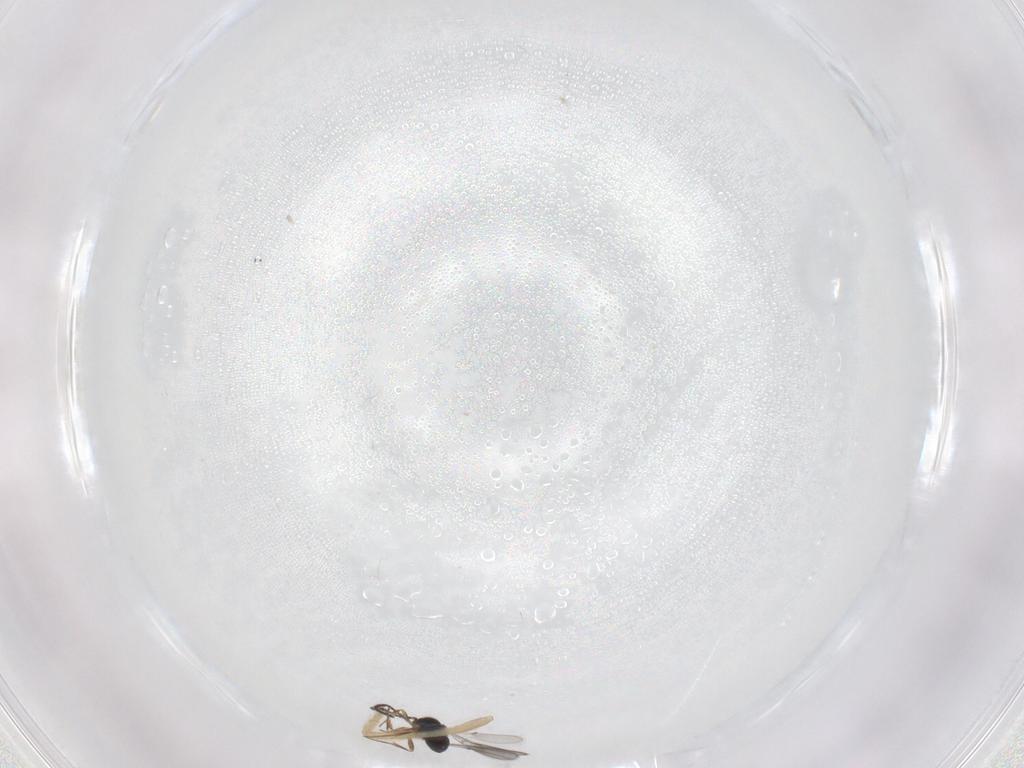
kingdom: Animalia
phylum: Arthropoda
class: Insecta
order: Hymenoptera
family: Scelionidae
